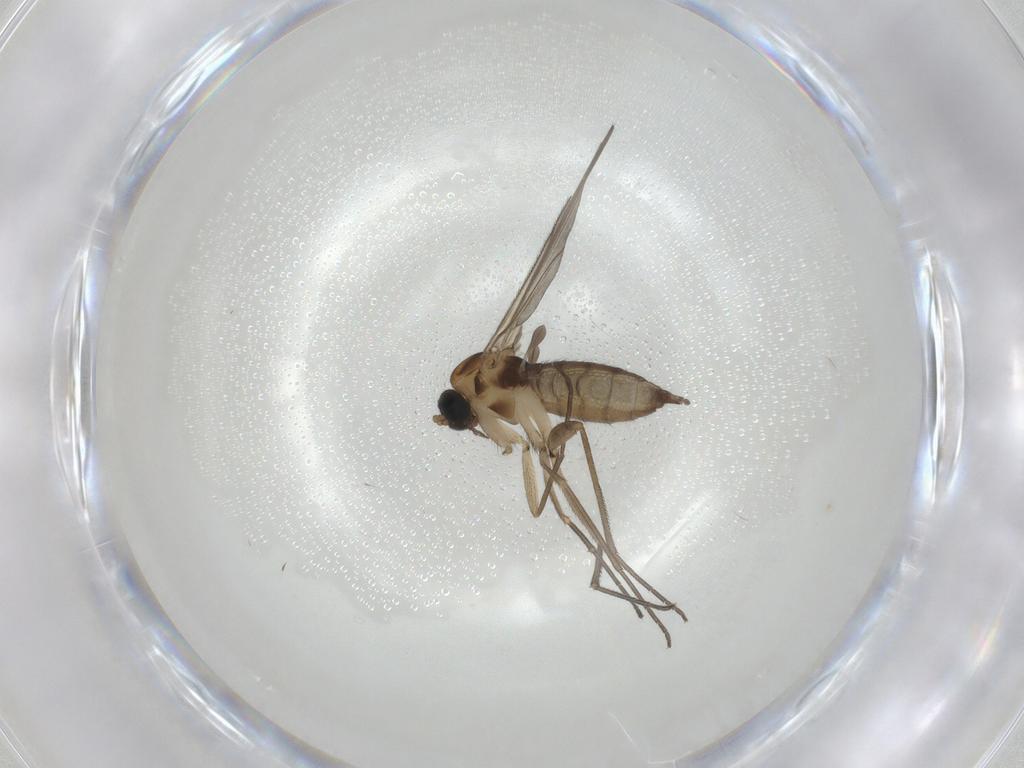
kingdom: Animalia
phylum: Arthropoda
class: Insecta
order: Diptera
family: Sciaridae
